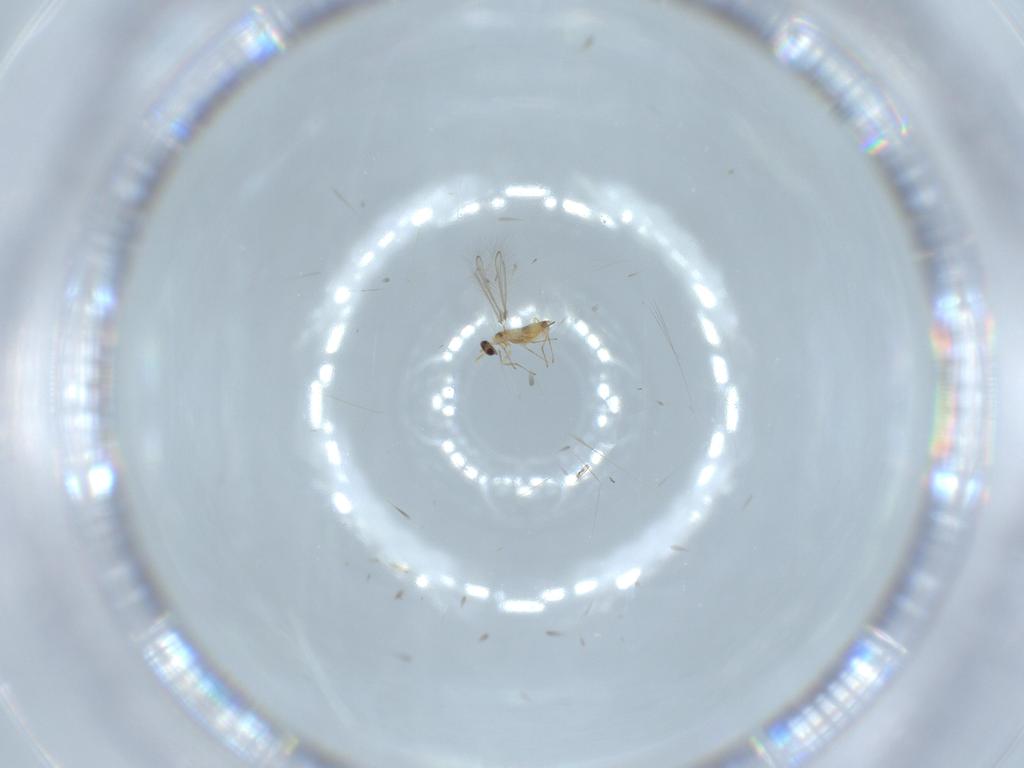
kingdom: Animalia
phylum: Arthropoda
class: Insecta
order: Hymenoptera
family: Mymaridae
